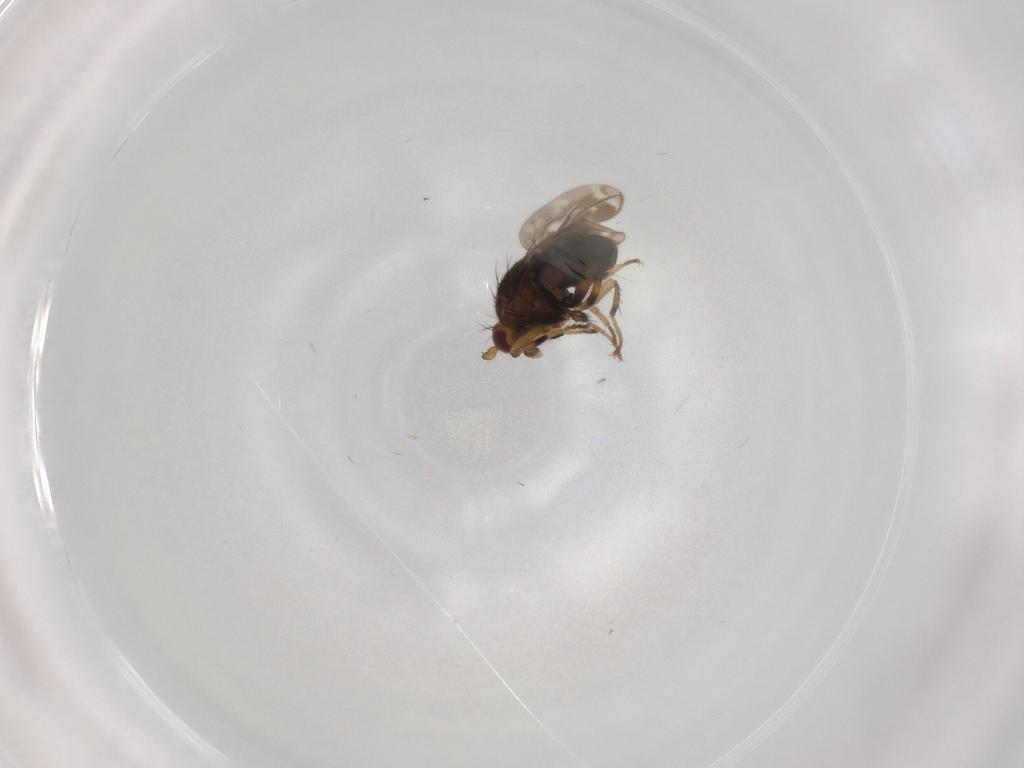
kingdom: Animalia
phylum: Arthropoda
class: Insecta
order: Diptera
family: Sphaeroceridae
